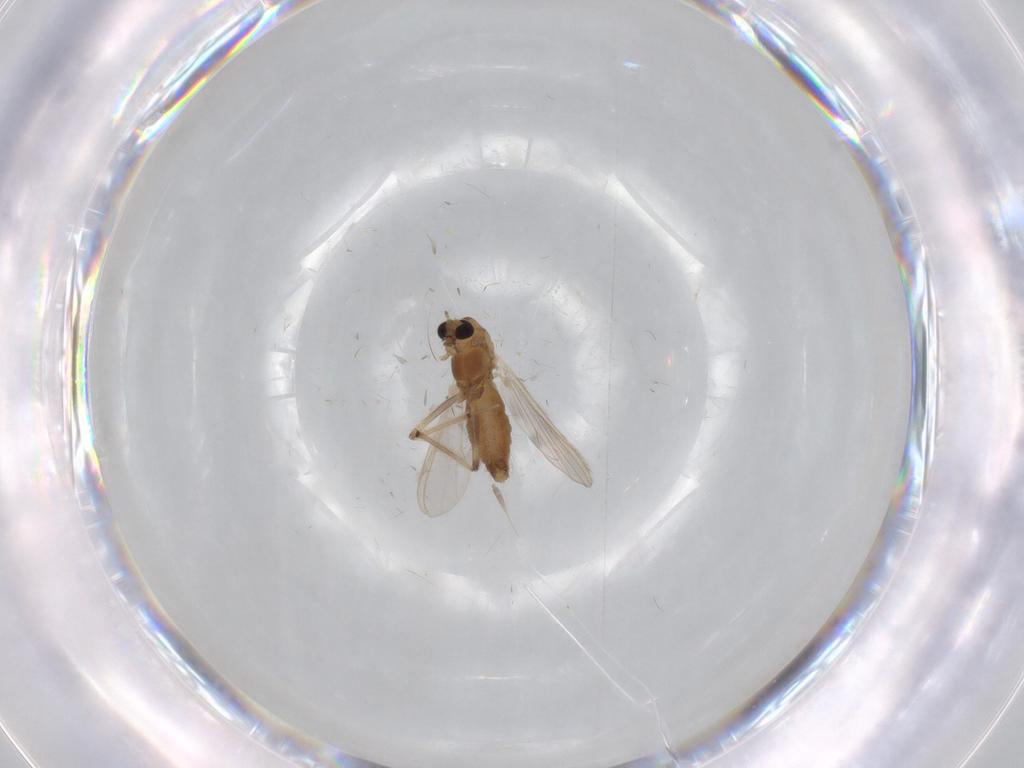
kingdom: Animalia
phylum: Arthropoda
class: Insecta
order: Diptera
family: Chironomidae
